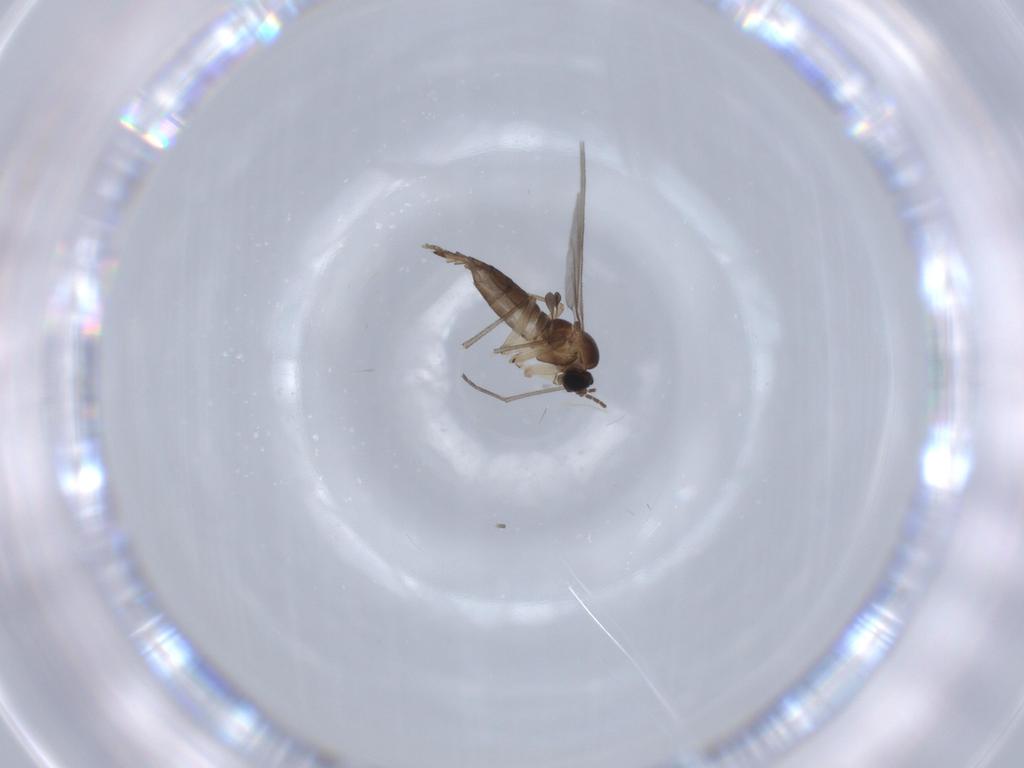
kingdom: Animalia
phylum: Arthropoda
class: Insecta
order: Diptera
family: Sciaridae
